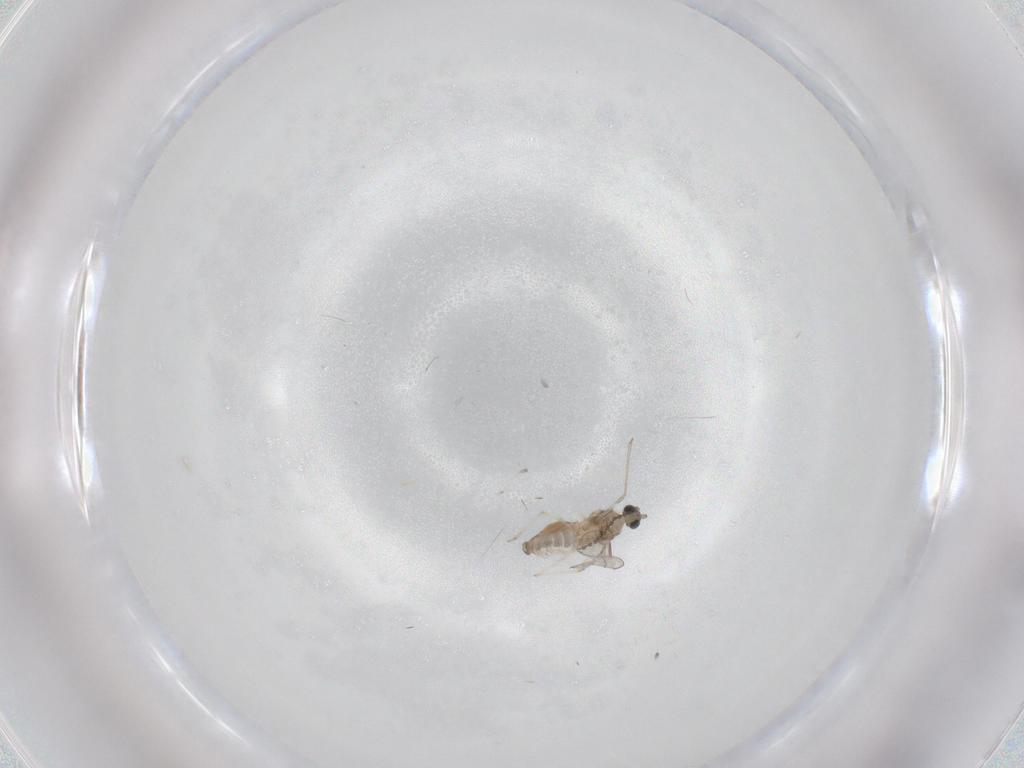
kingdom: Animalia
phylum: Arthropoda
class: Insecta
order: Diptera
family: Cecidomyiidae
